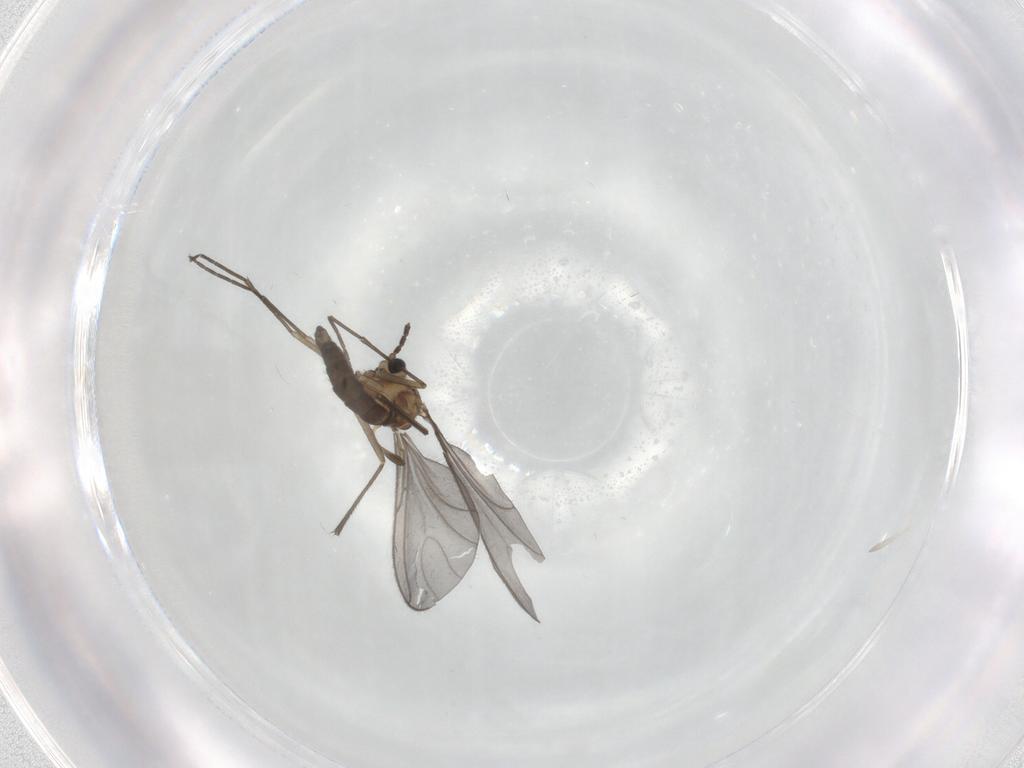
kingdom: Animalia
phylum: Arthropoda
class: Insecta
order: Diptera
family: Sciaridae
